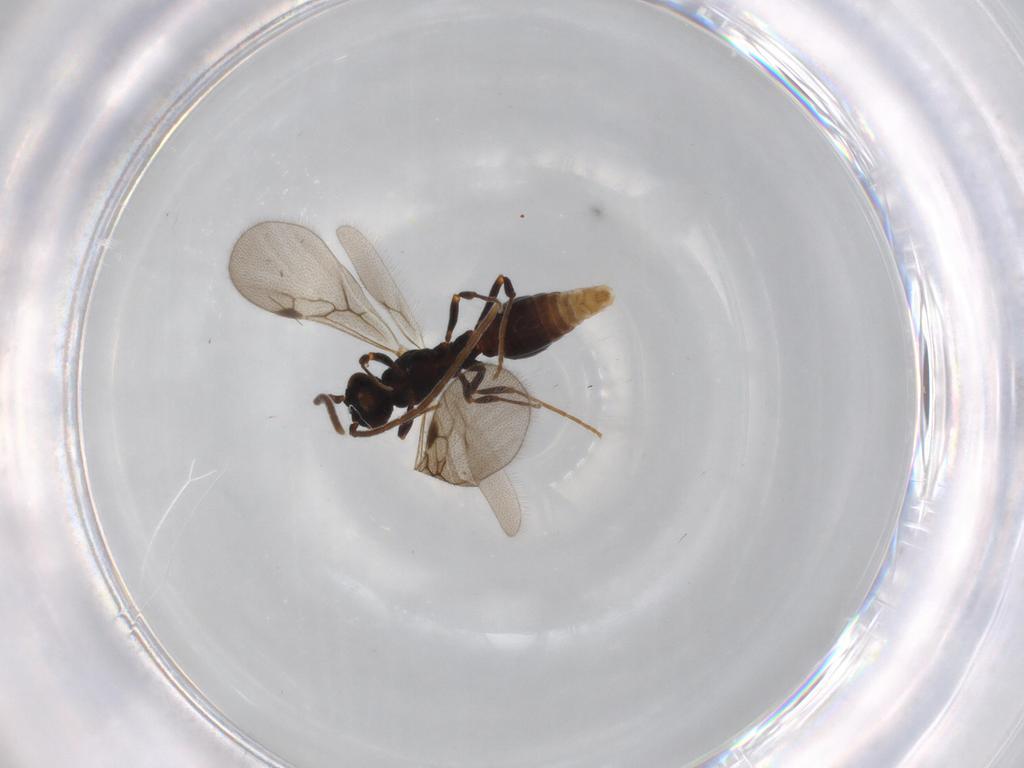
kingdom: Animalia
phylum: Arthropoda
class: Insecta
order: Hymenoptera
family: Formicidae
